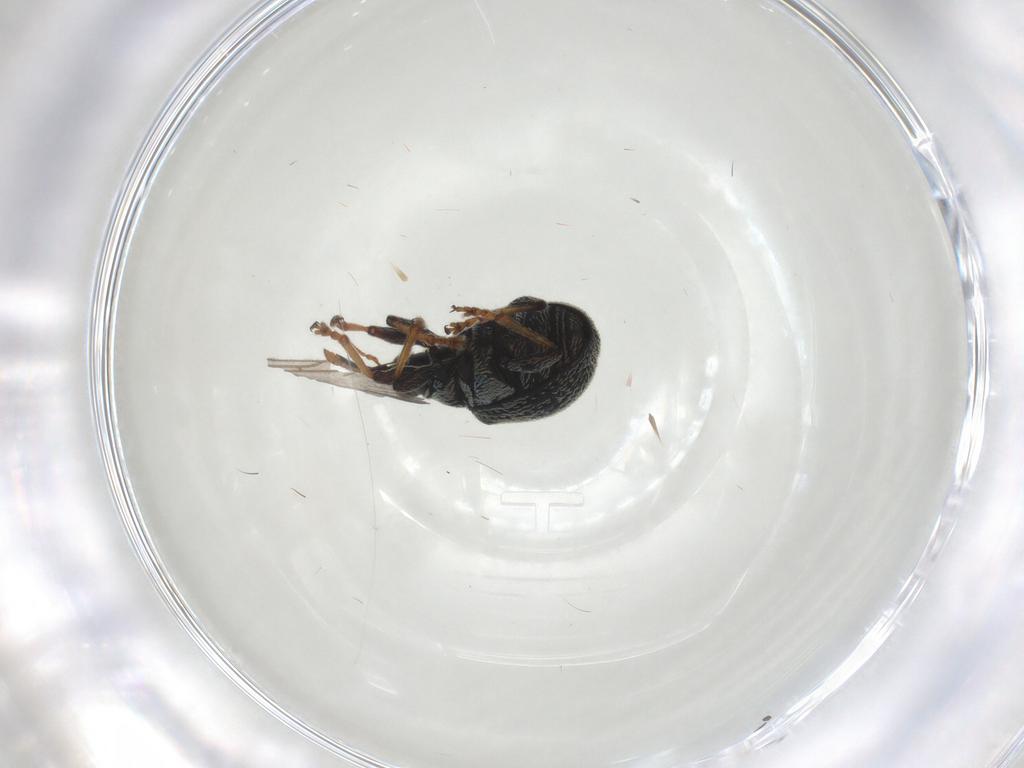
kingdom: Animalia
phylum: Arthropoda
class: Insecta
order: Coleoptera
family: Brentidae
